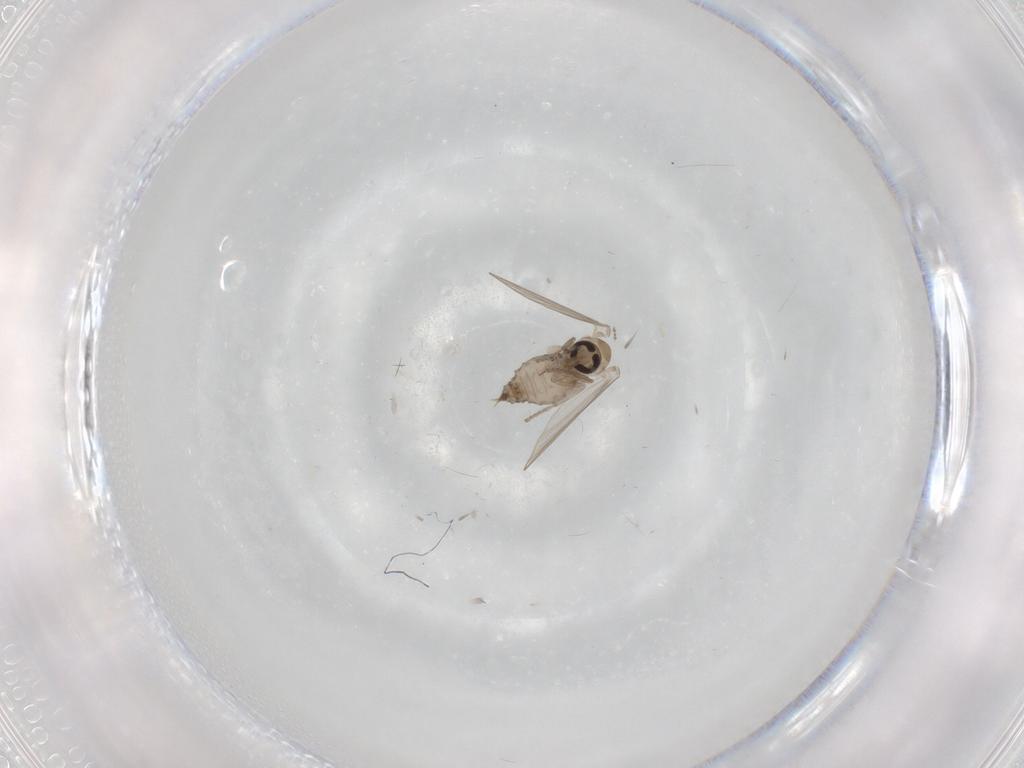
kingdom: Animalia
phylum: Arthropoda
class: Insecta
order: Diptera
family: Psychodidae
